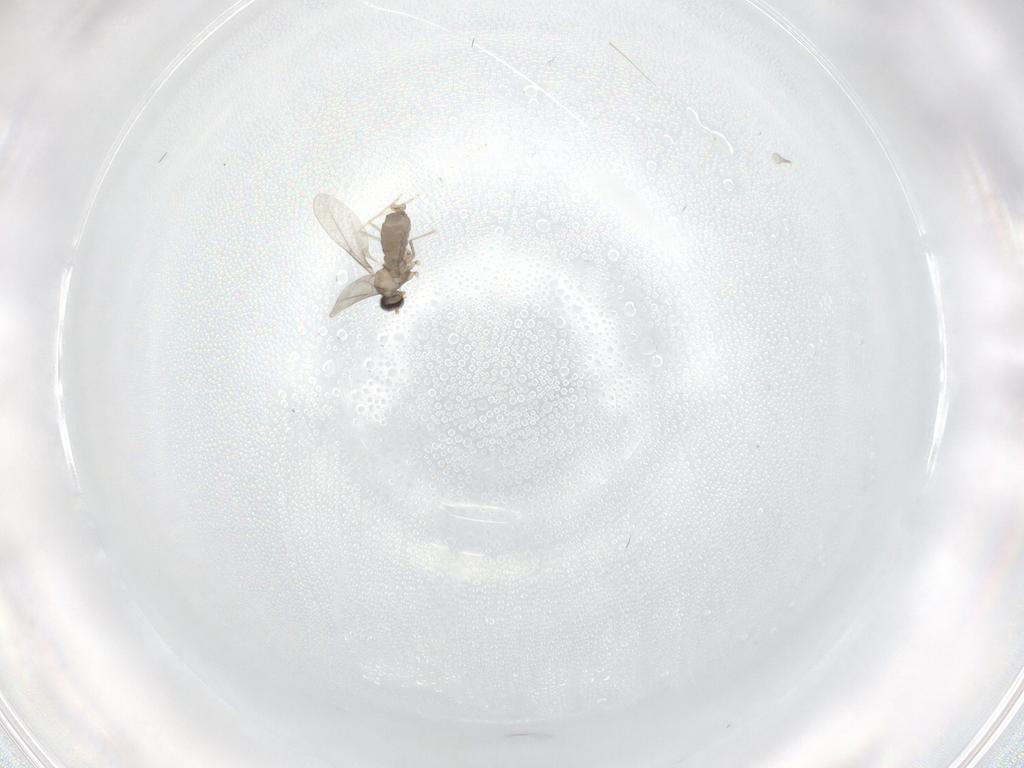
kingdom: Animalia
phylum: Arthropoda
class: Insecta
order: Diptera
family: Cecidomyiidae
